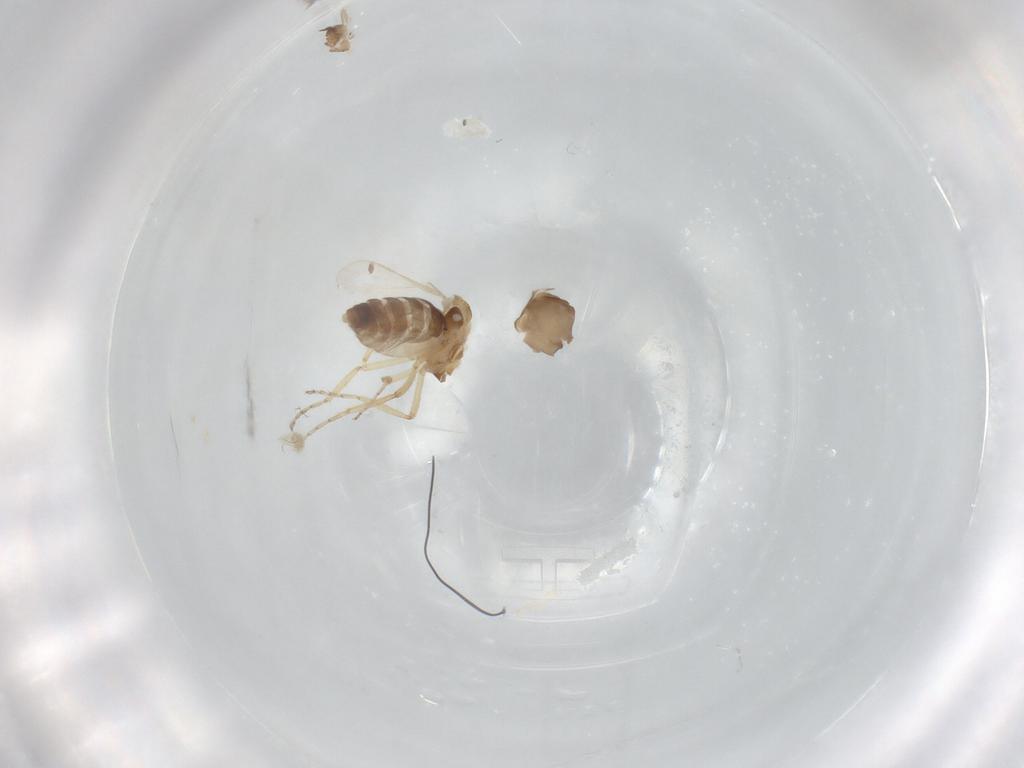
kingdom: Animalia
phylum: Arthropoda
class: Insecta
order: Diptera
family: Ceratopogonidae
